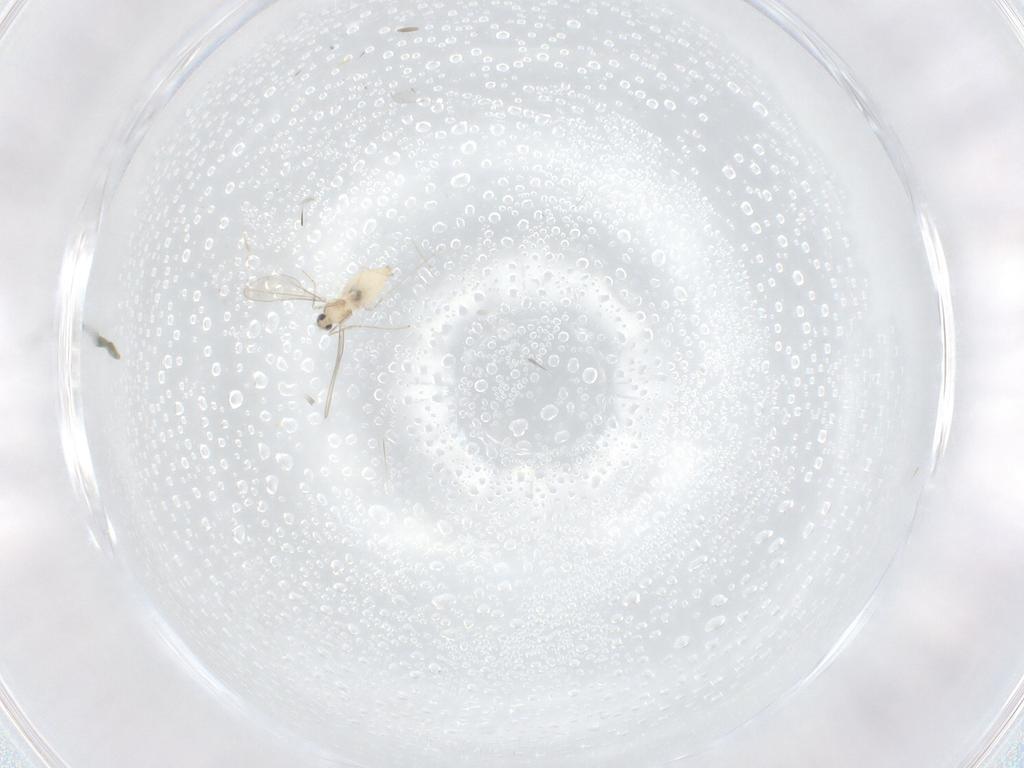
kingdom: Animalia
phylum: Arthropoda
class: Insecta
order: Diptera
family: Cecidomyiidae
